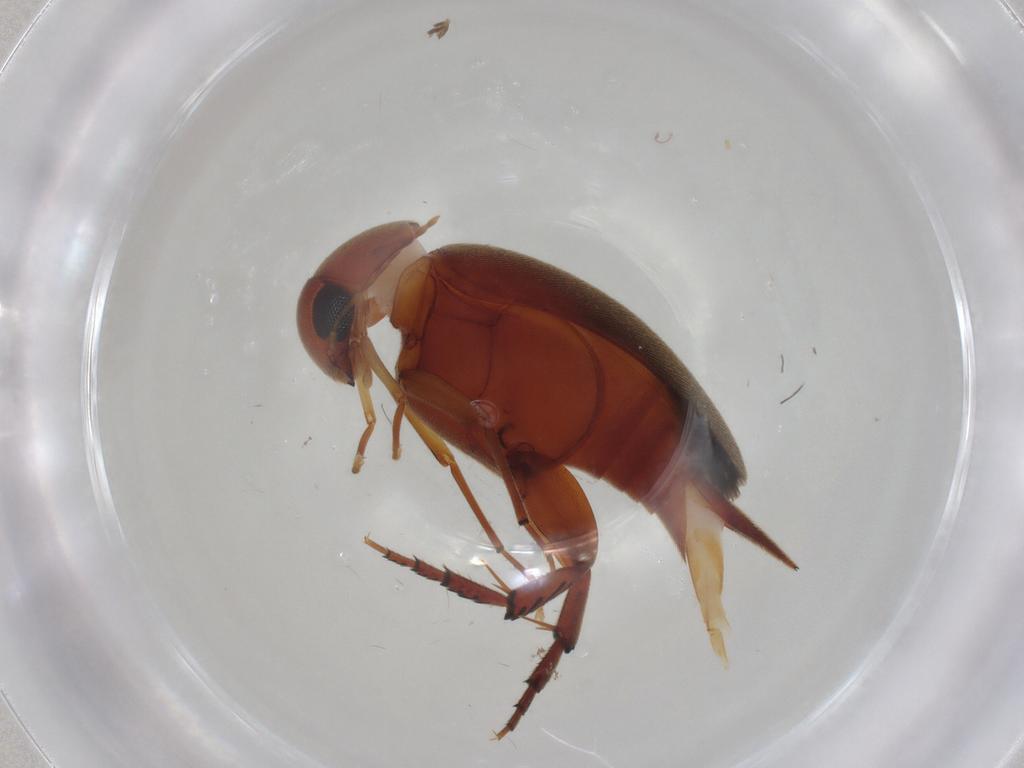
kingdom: Animalia
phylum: Arthropoda
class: Insecta
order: Coleoptera
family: Mordellidae
